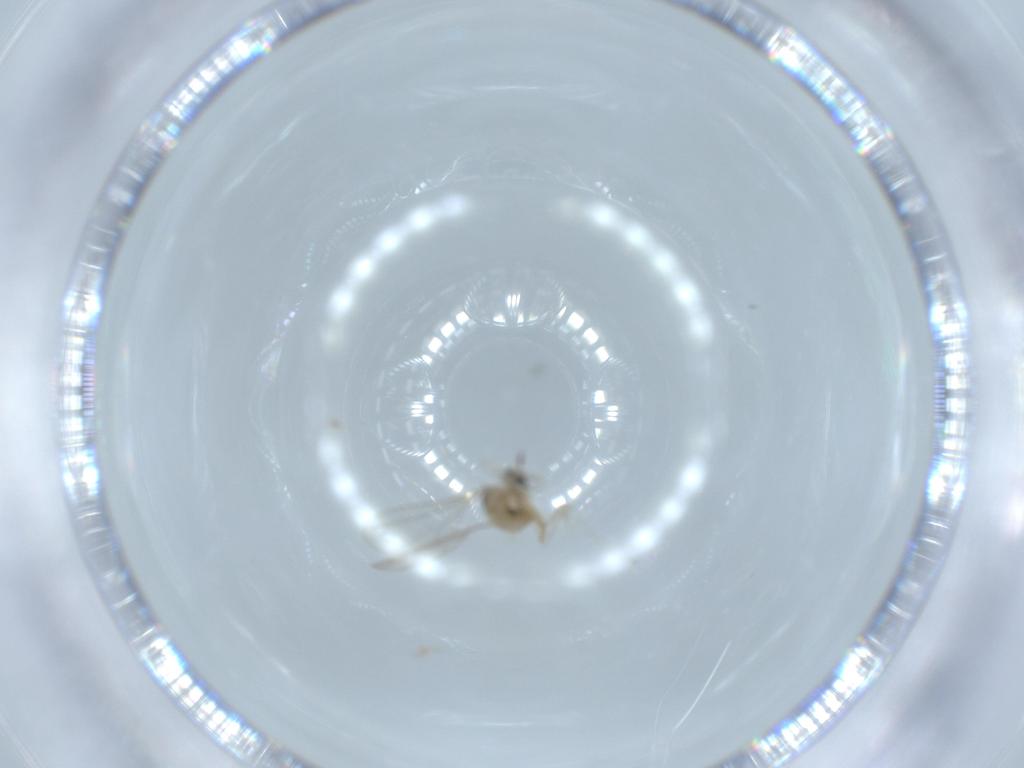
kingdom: Animalia
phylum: Arthropoda
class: Insecta
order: Diptera
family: Cecidomyiidae
